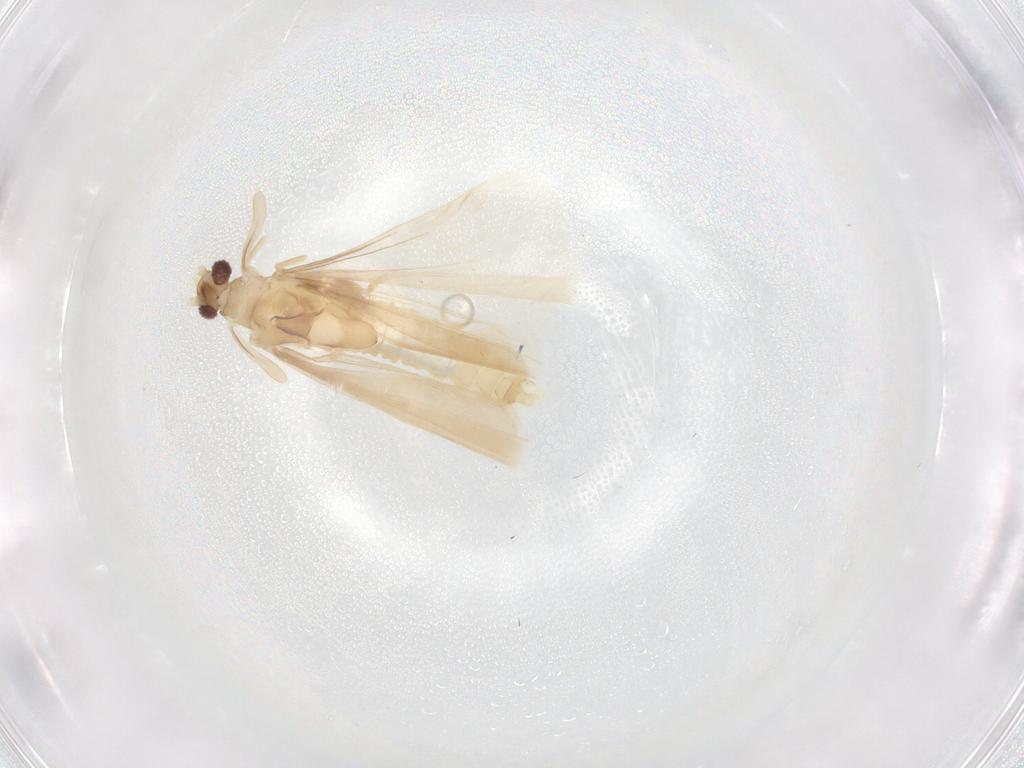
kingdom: Animalia
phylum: Arthropoda
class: Insecta
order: Strepsiptera
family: Mengenillidae
